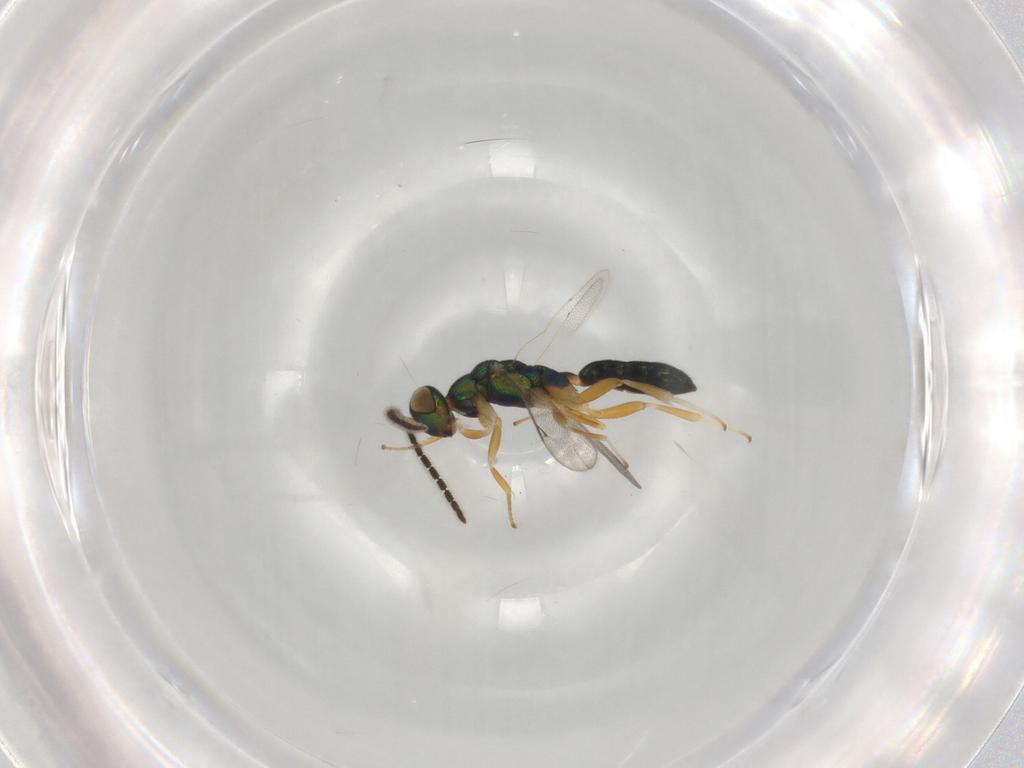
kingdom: Animalia
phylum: Arthropoda
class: Insecta
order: Hymenoptera
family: Cleonyminae
